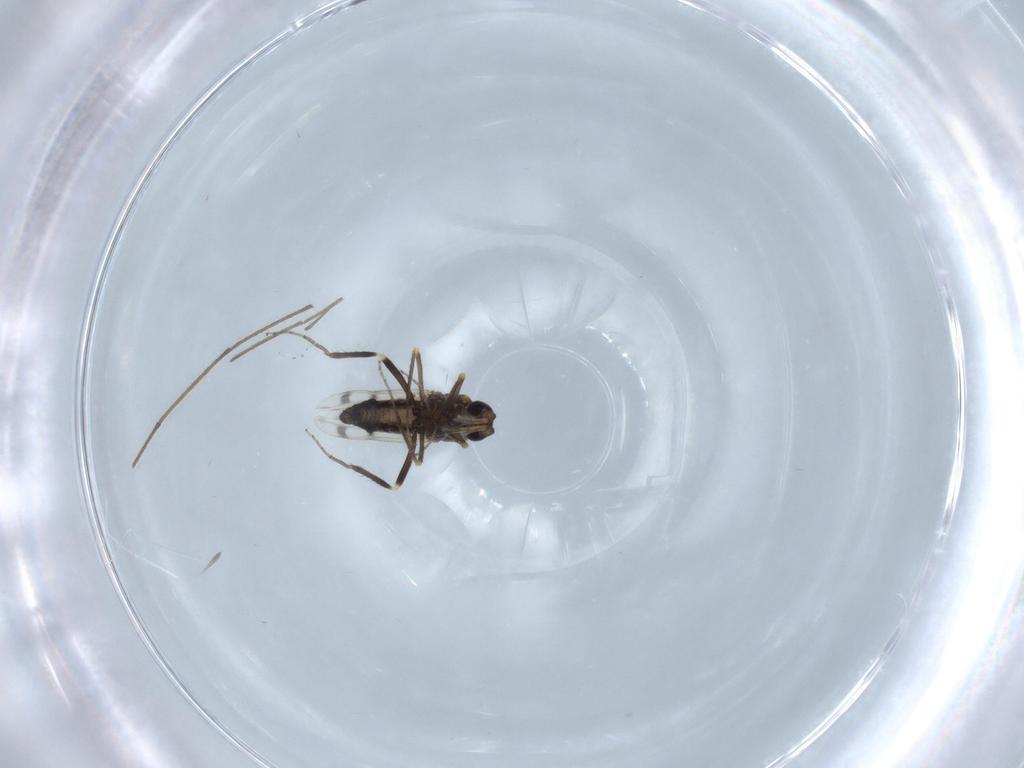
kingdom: Animalia
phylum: Arthropoda
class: Insecta
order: Diptera
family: Ceratopogonidae
